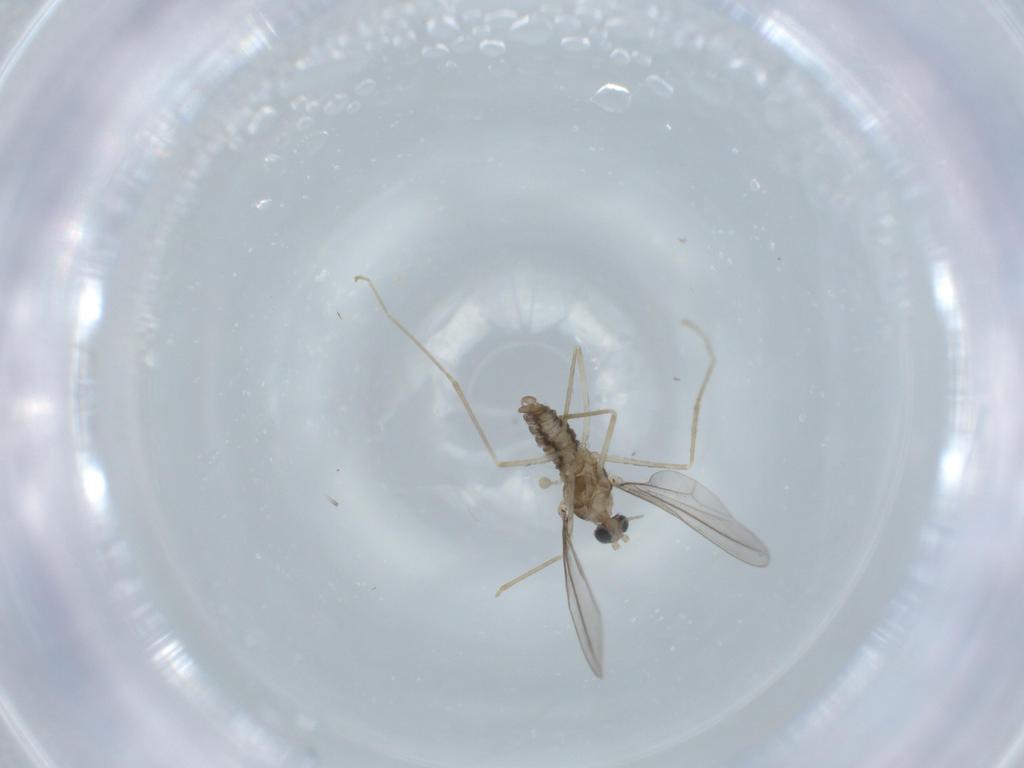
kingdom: Animalia
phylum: Arthropoda
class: Insecta
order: Diptera
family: Cecidomyiidae
